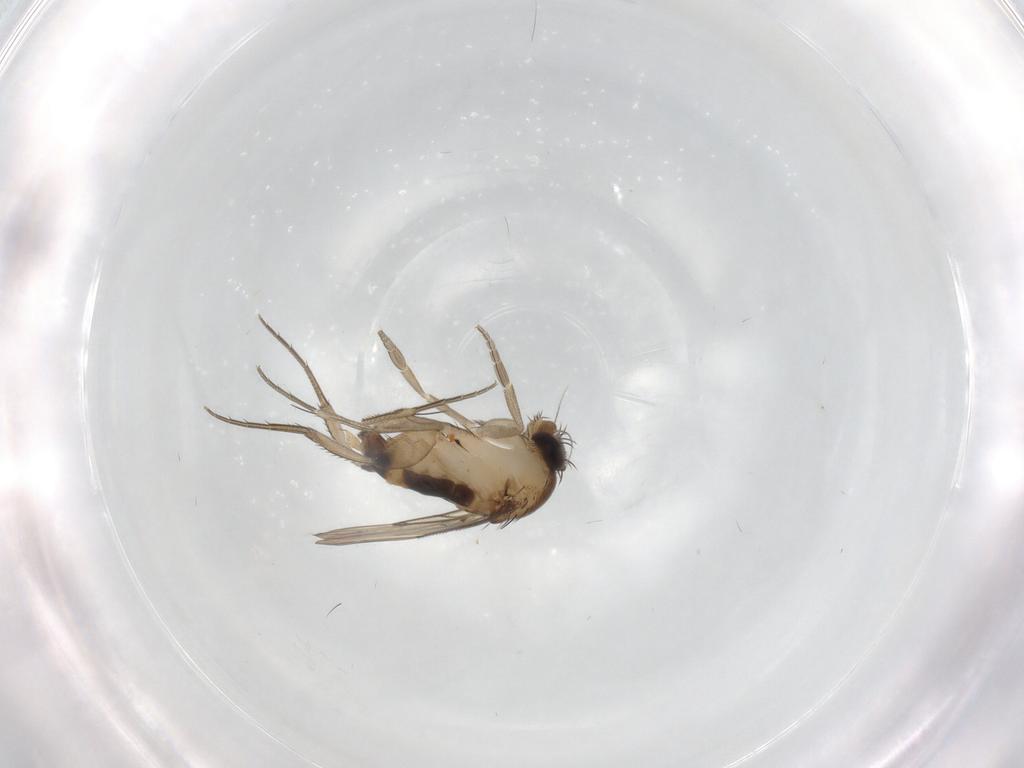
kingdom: Animalia
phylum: Arthropoda
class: Insecta
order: Diptera
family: Phoridae
